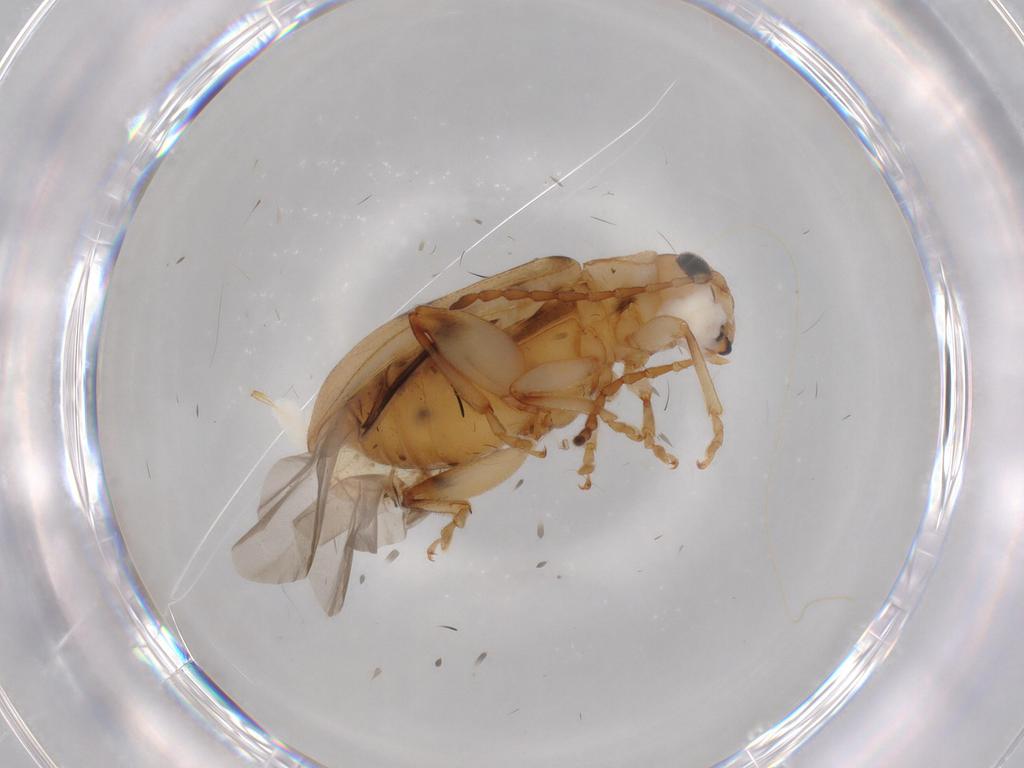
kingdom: Animalia
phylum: Arthropoda
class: Insecta
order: Coleoptera
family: Chrysomelidae
